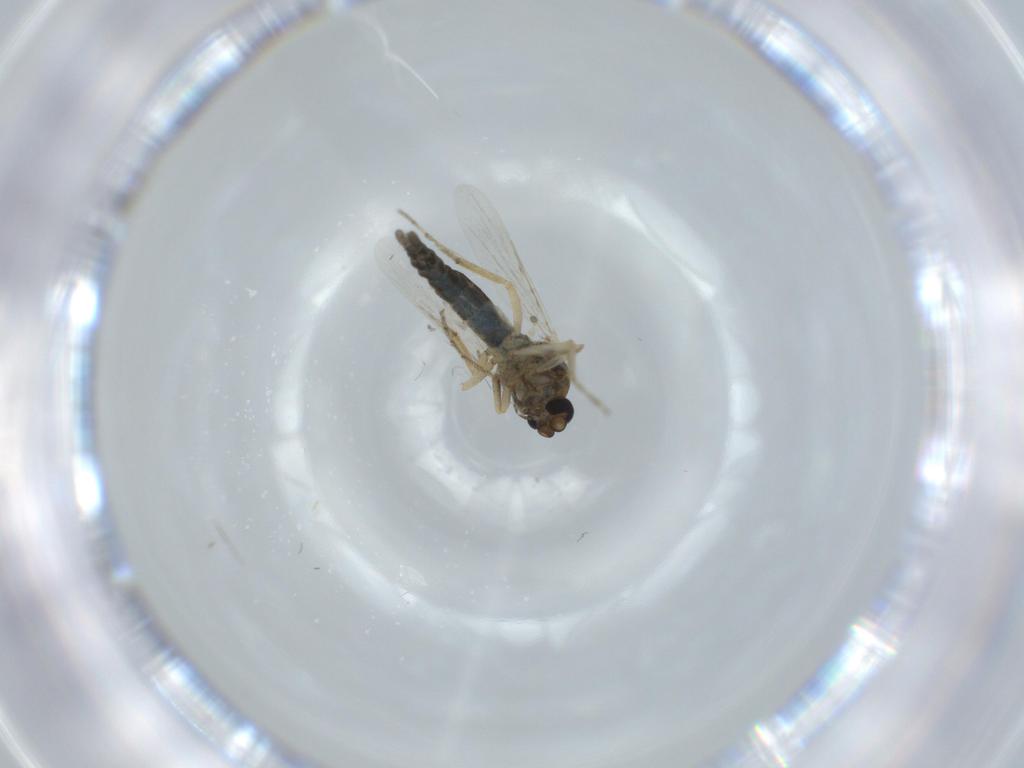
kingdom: Animalia
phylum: Arthropoda
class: Insecta
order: Diptera
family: Ceratopogonidae
